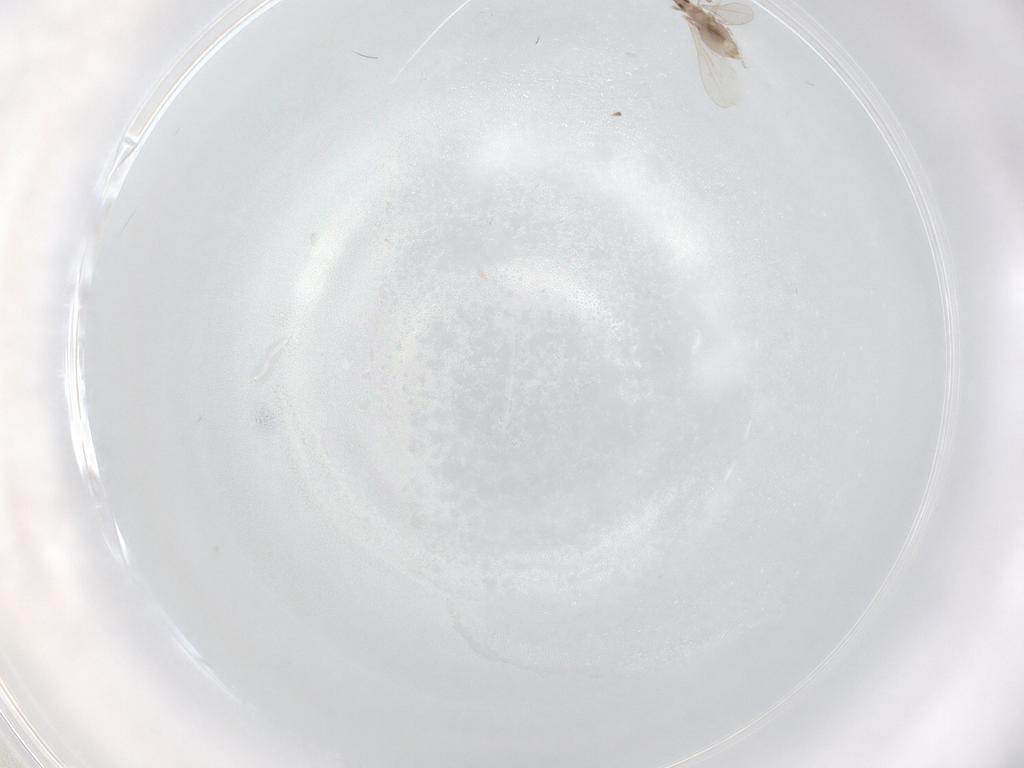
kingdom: Animalia
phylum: Arthropoda
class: Insecta
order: Diptera
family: Cecidomyiidae
